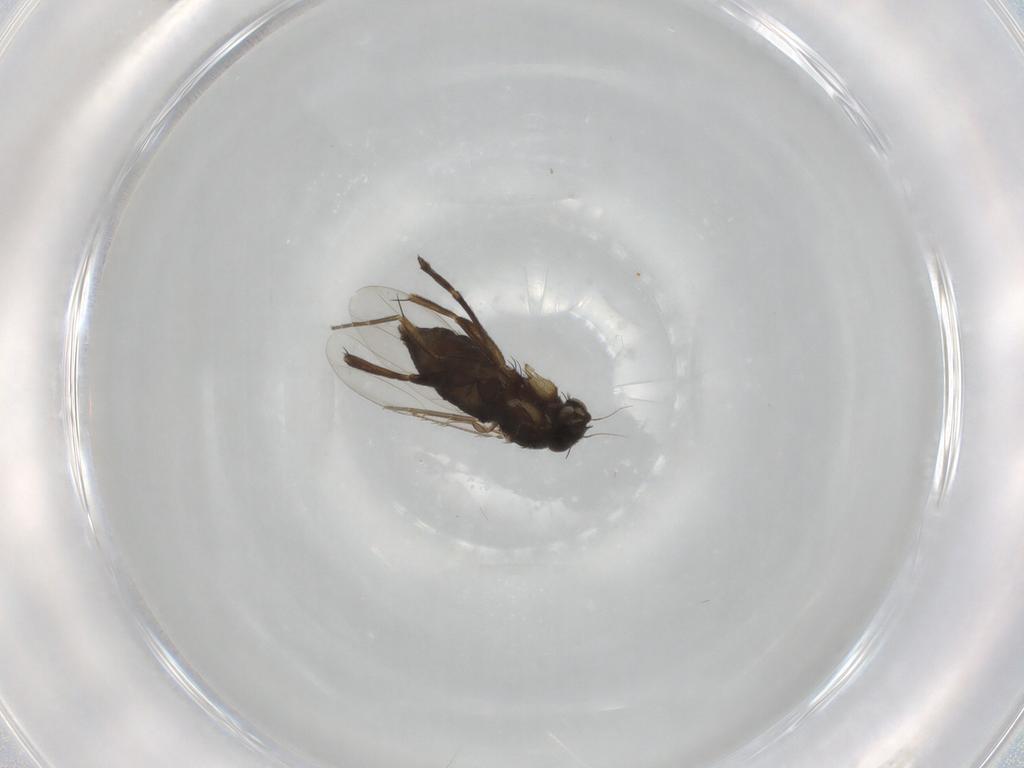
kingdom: Animalia
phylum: Arthropoda
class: Insecta
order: Diptera
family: Phoridae
